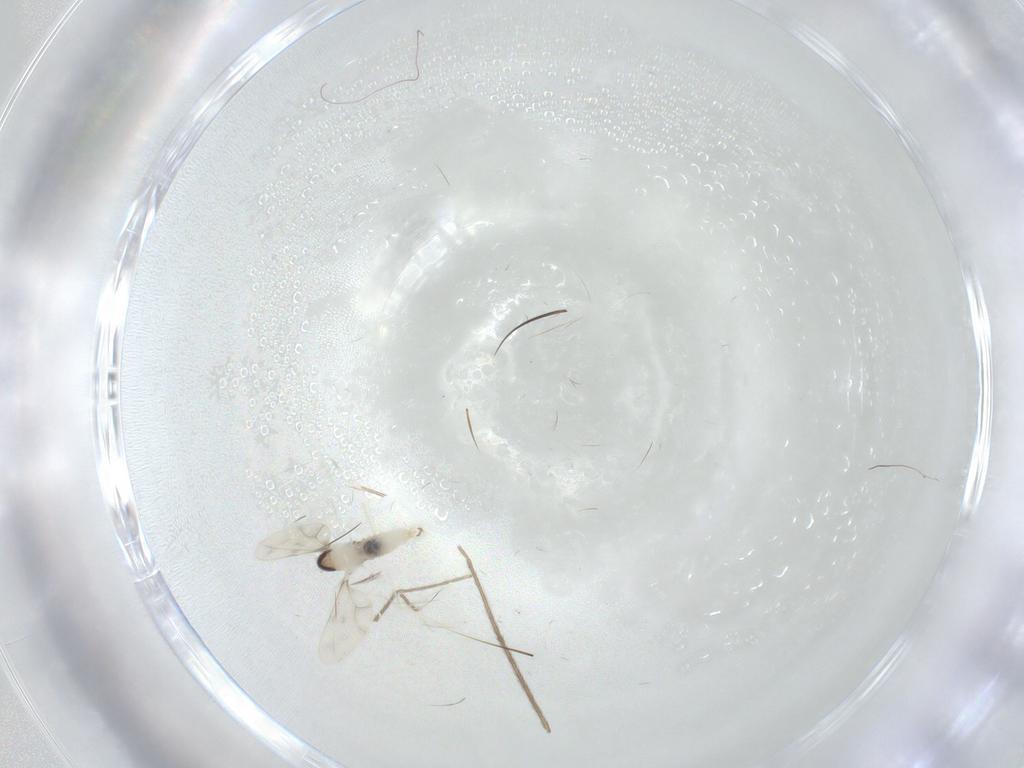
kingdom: Animalia
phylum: Arthropoda
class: Insecta
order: Diptera
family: Cecidomyiidae
